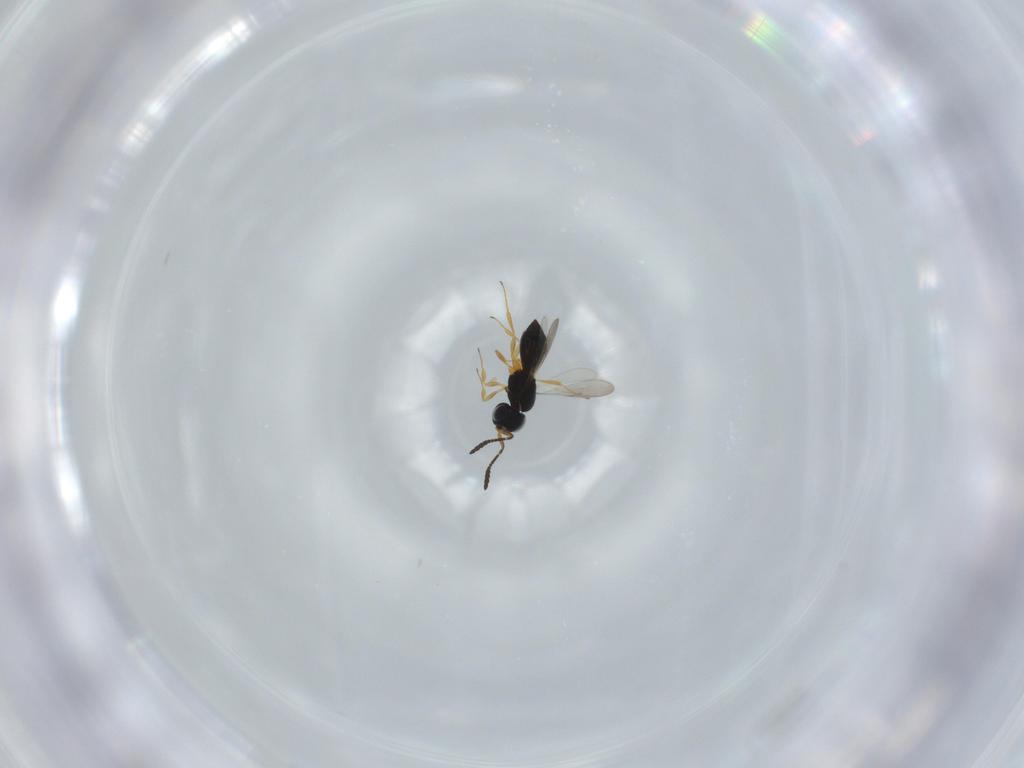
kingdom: Animalia
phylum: Arthropoda
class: Insecta
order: Hymenoptera
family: Scelionidae
